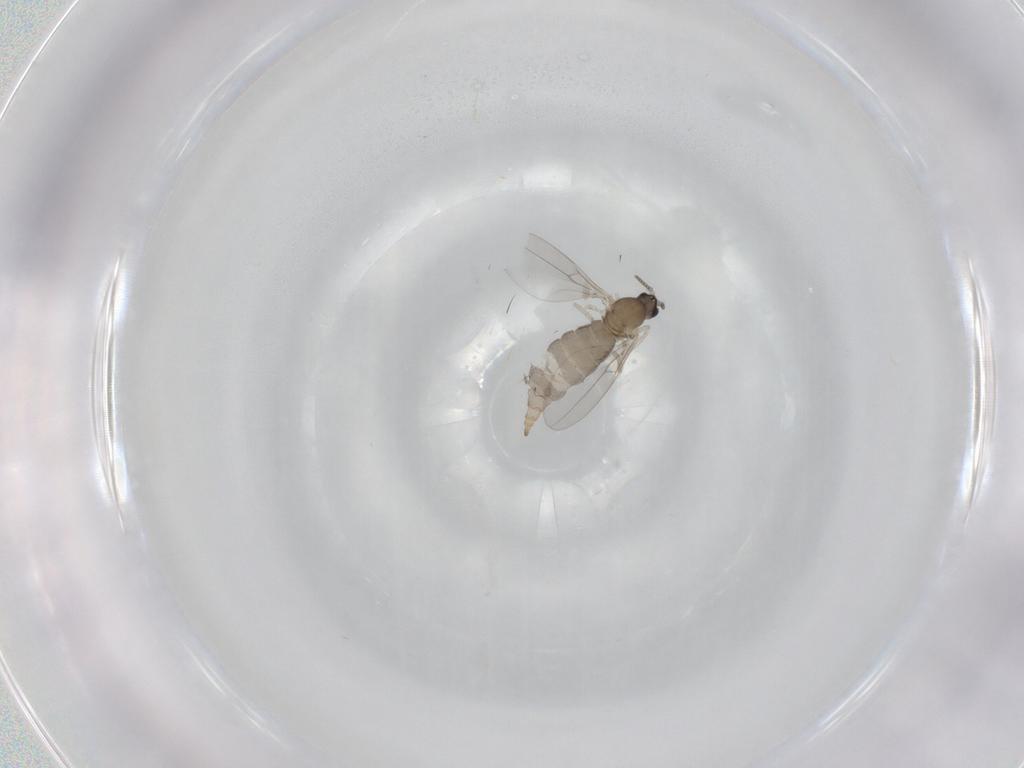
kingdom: Animalia
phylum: Arthropoda
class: Insecta
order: Diptera
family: Cecidomyiidae
